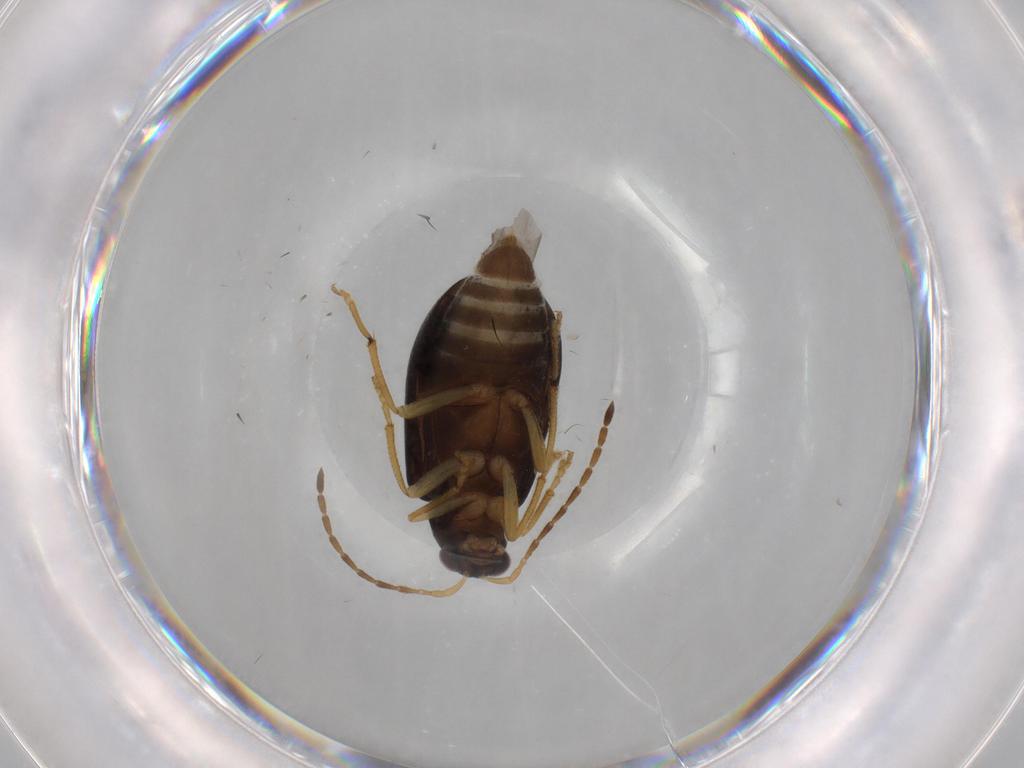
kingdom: Animalia
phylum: Arthropoda
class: Insecta
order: Coleoptera
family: Chrysomelidae
